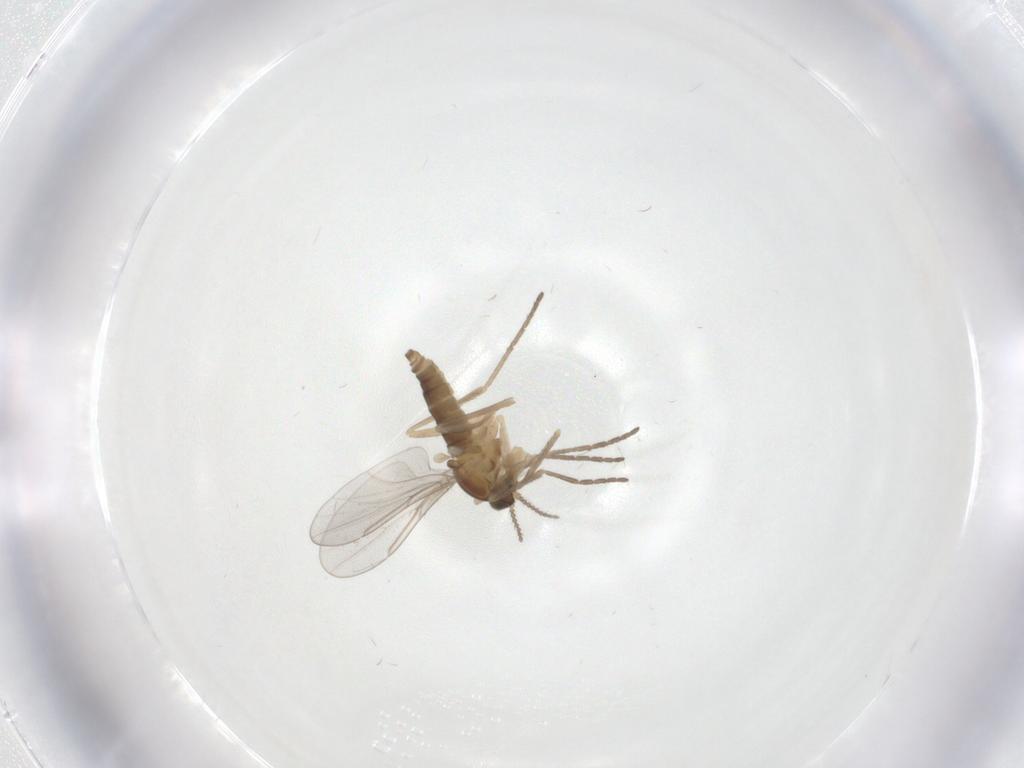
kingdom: Animalia
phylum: Arthropoda
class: Insecta
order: Diptera
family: Cecidomyiidae
